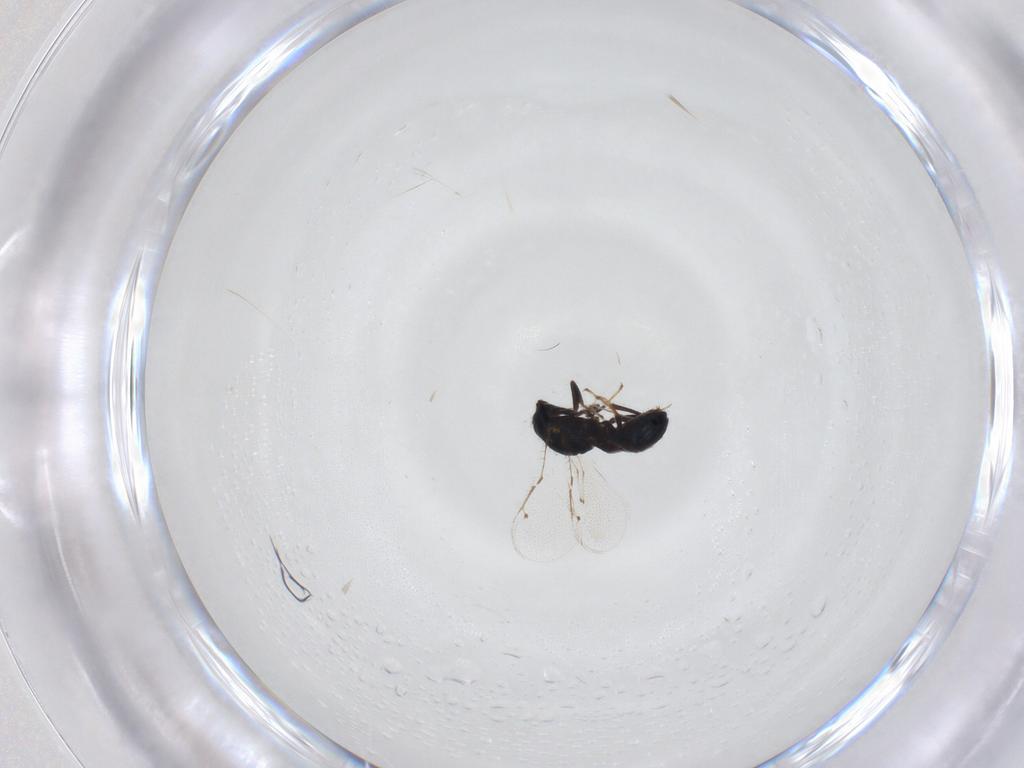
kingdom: Animalia
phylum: Arthropoda
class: Insecta
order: Hymenoptera
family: Pirenidae
